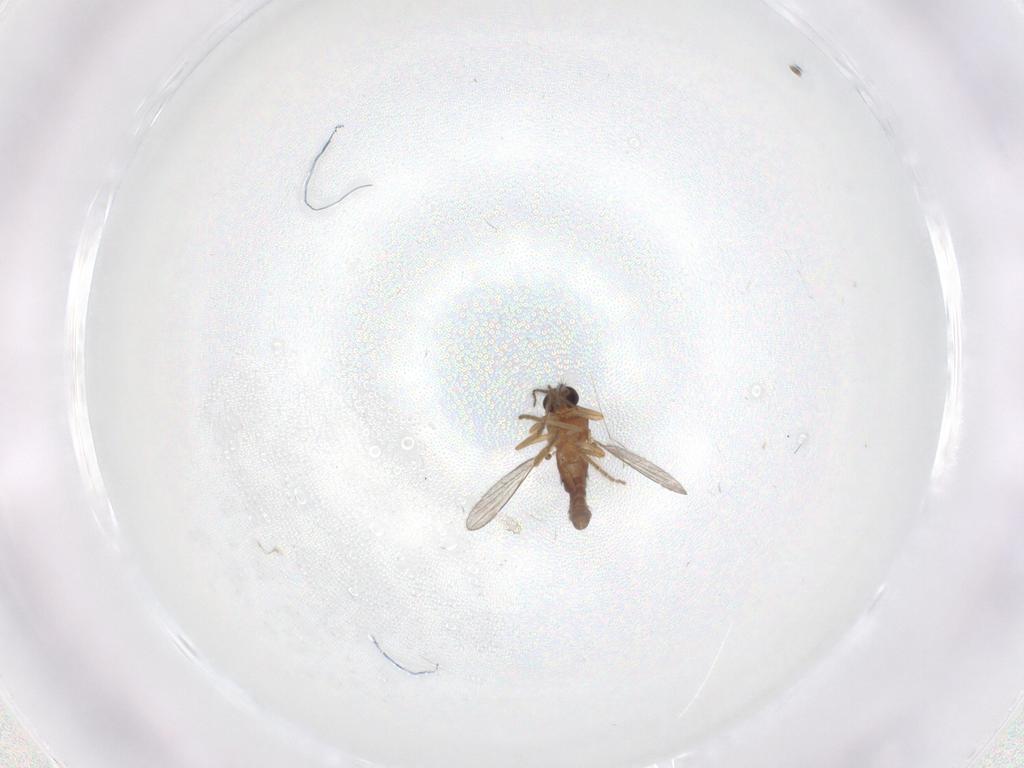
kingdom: Animalia
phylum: Arthropoda
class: Insecta
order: Diptera
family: Ceratopogonidae
